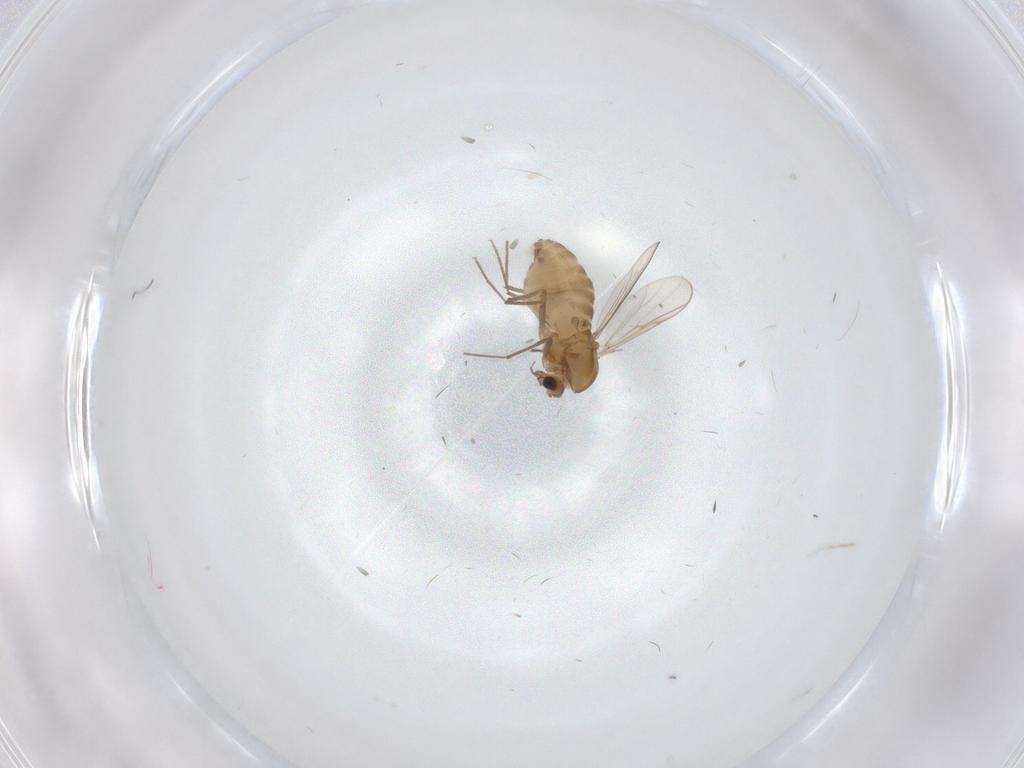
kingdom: Animalia
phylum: Arthropoda
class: Insecta
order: Diptera
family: Chironomidae
